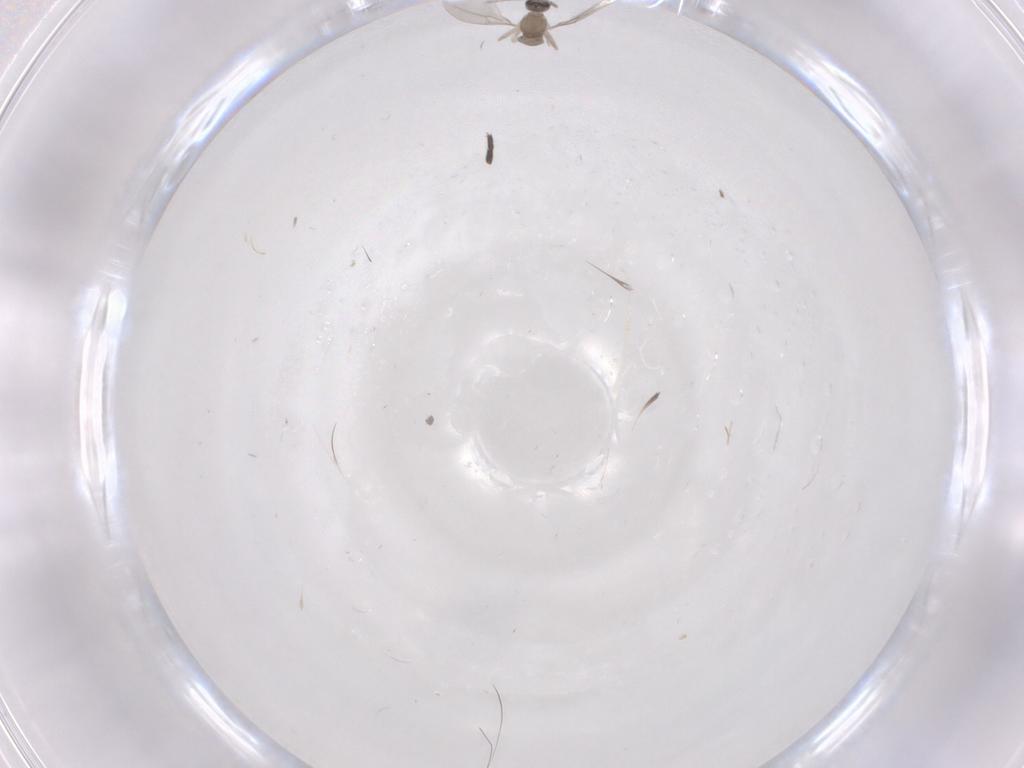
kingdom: Animalia
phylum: Arthropoda
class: Insecta
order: Diptera
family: Cecidomyiidae
